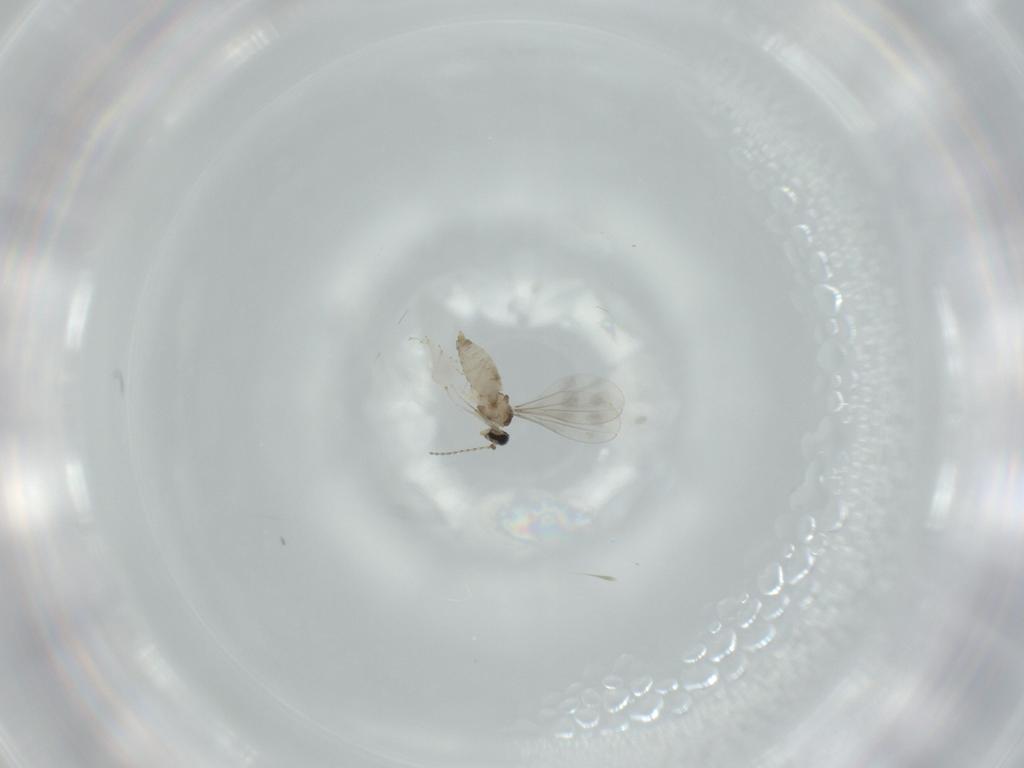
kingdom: Animalia
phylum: Arthropoda
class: Insecta
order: Diptera
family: Cecidomyiidae
